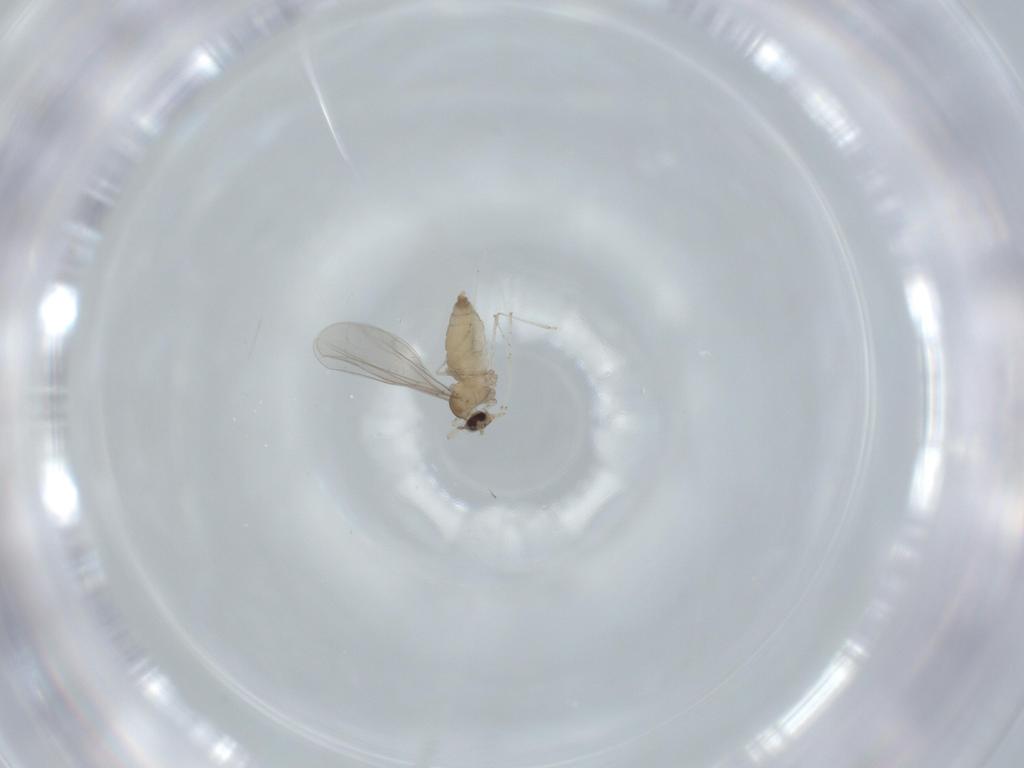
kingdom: Animalia
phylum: Arthropoda
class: Insecta
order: Diptera
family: Cecidomyiidae
